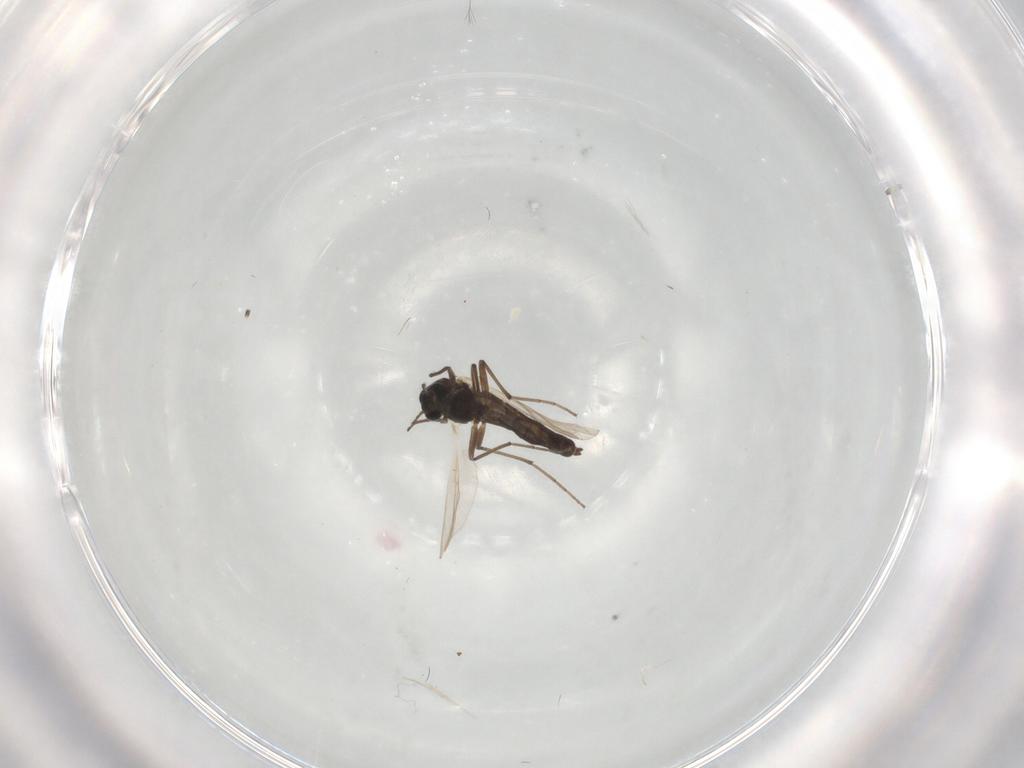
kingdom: Animalia
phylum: Arthropoda
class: Insecta
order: Diptera
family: Chironomidae
